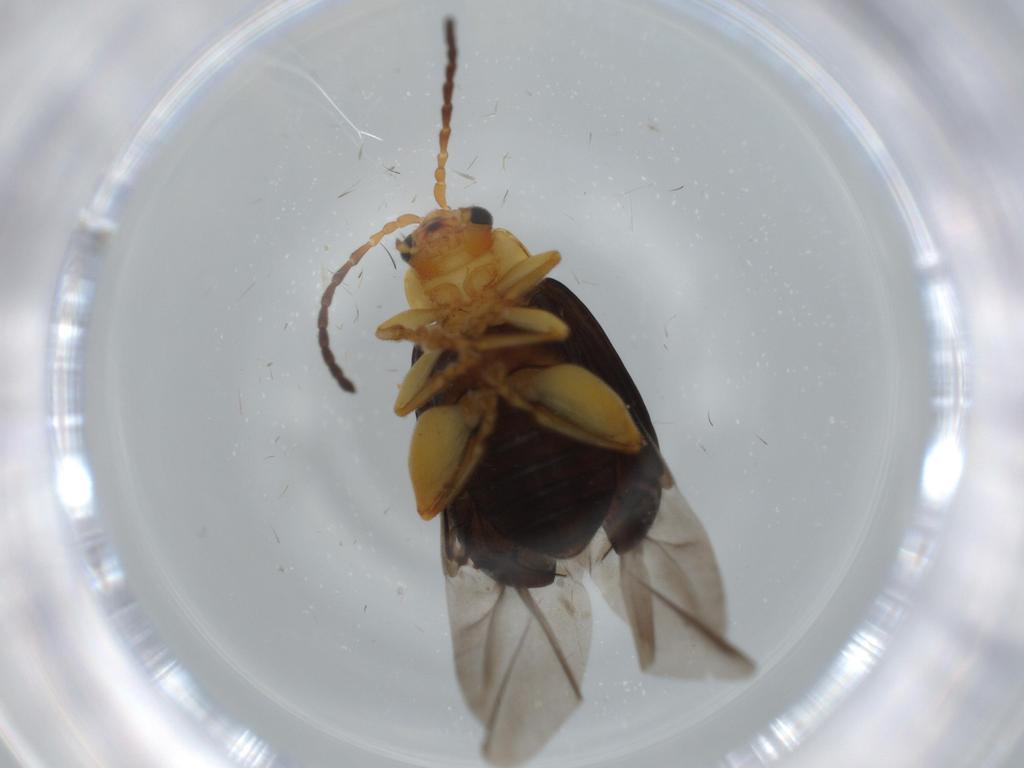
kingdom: Animalia
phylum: Arthropoda
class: Insecta
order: Coleoptera
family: Chrysomelidae
